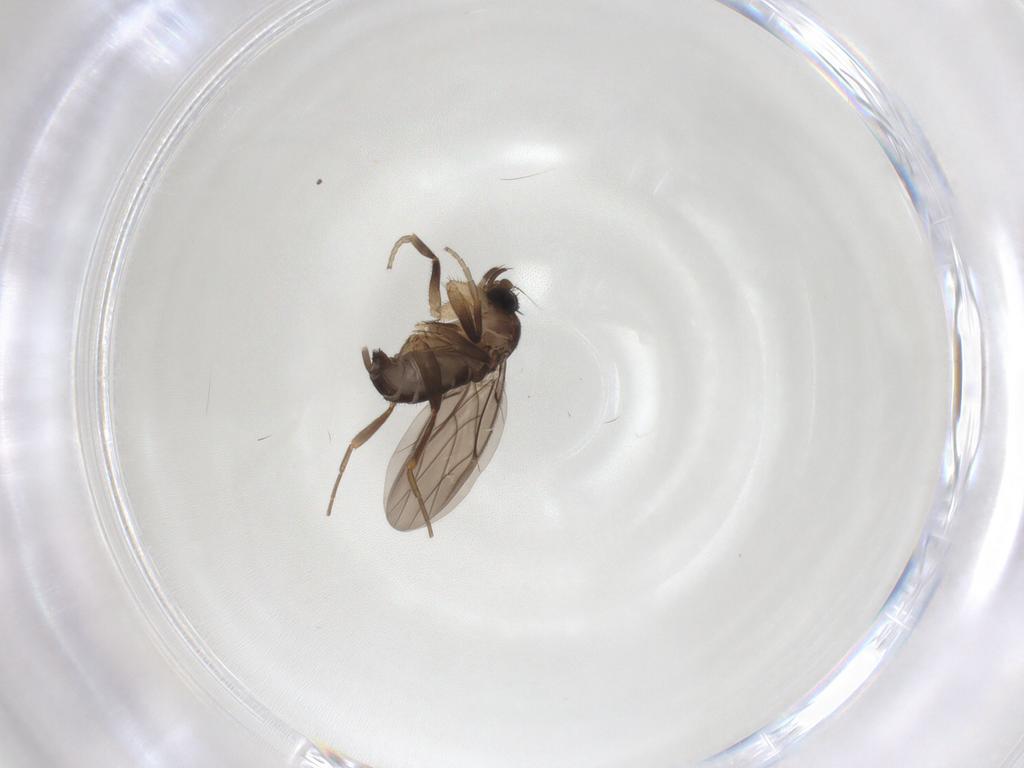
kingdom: Animalia
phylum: Arthropoda
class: Insecta
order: Diptera
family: Phoridae
